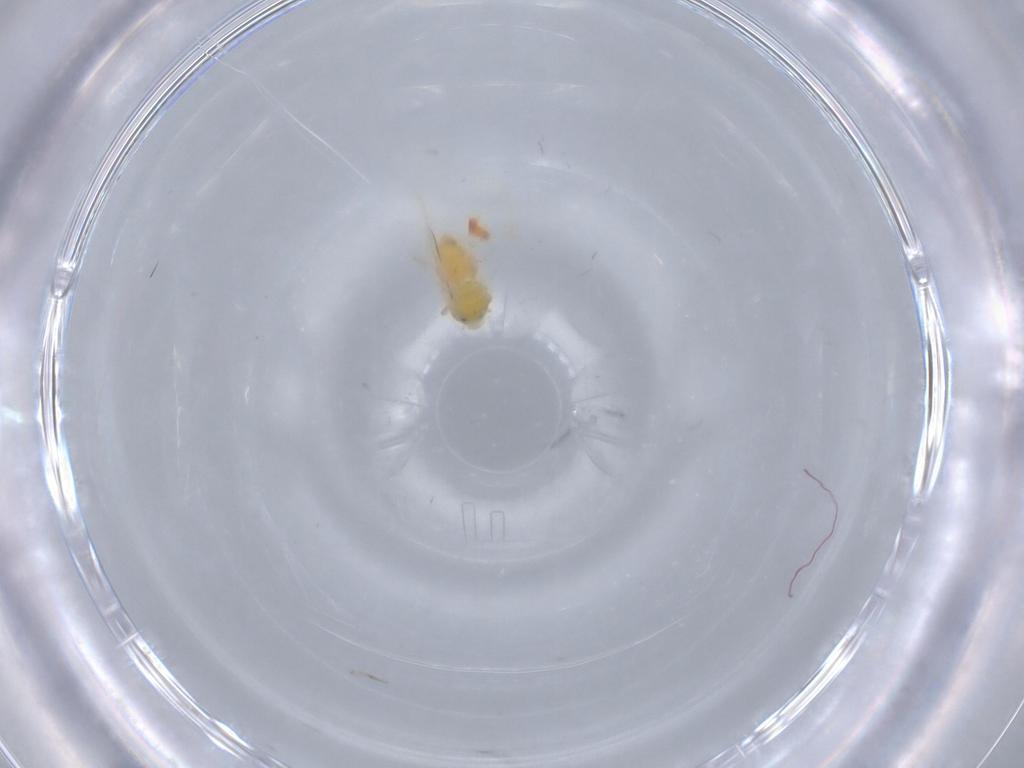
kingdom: Animalia
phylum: Arthropoda
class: Insecta
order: Hemiptera
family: Aleyrodidae
